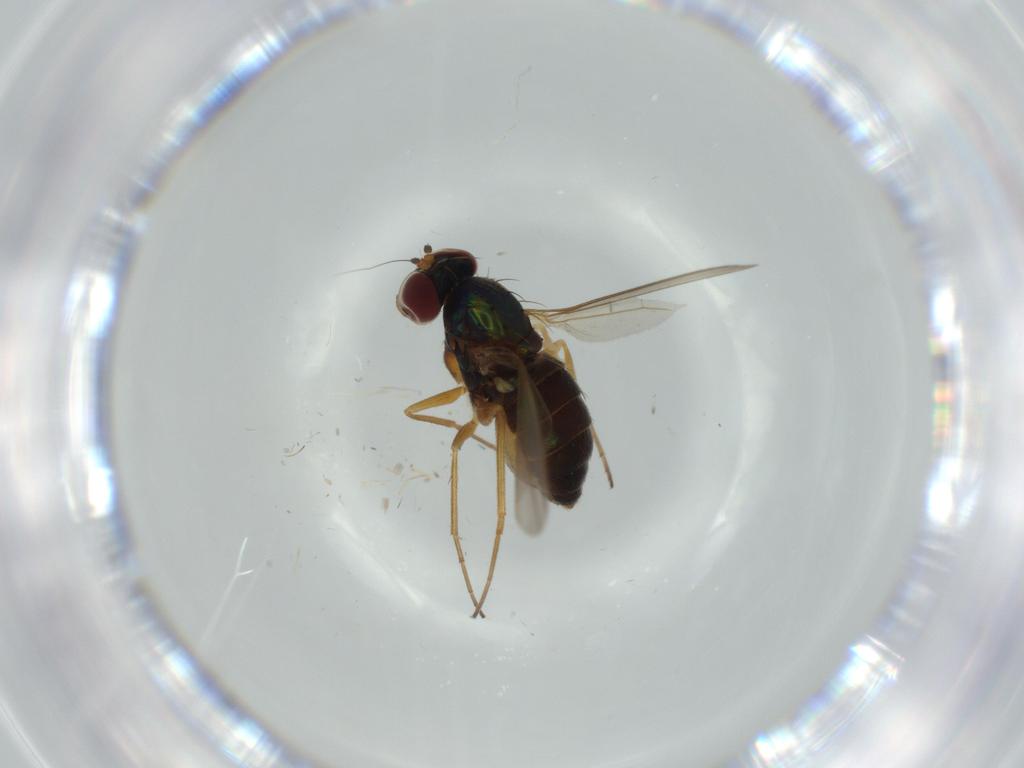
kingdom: Animalia
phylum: Arthropoda
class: Insecta
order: Diptera
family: Dolichopodidae
